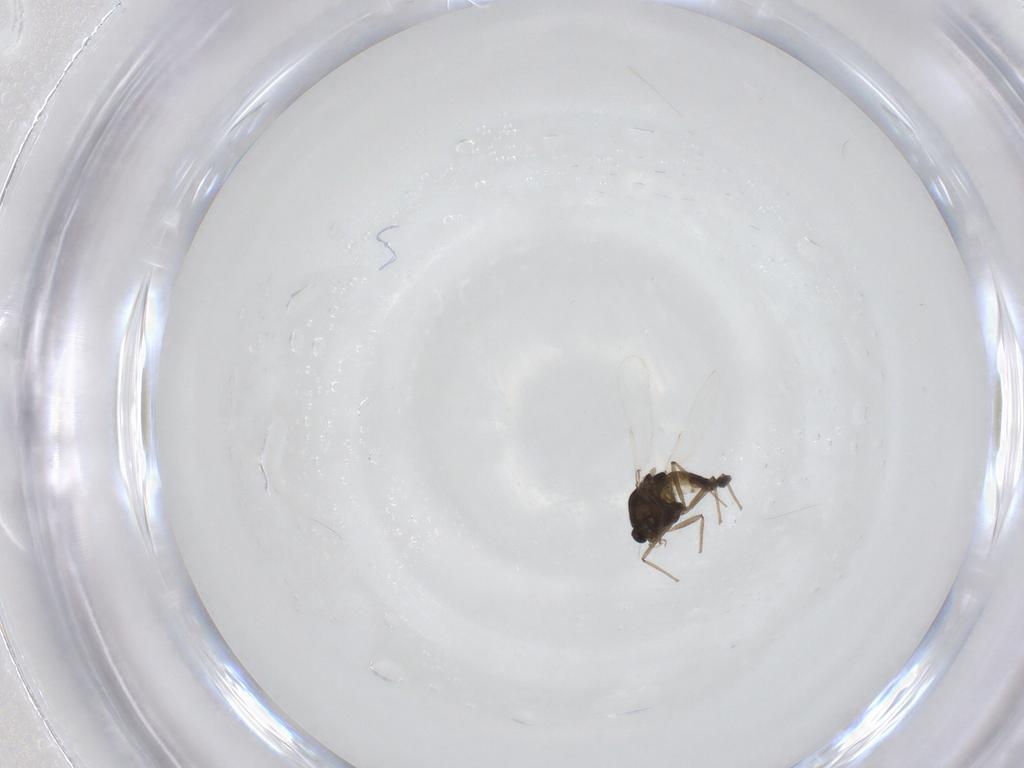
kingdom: Animalia
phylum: Arthropoda
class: Insecta
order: Diptera
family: Chironomidae
